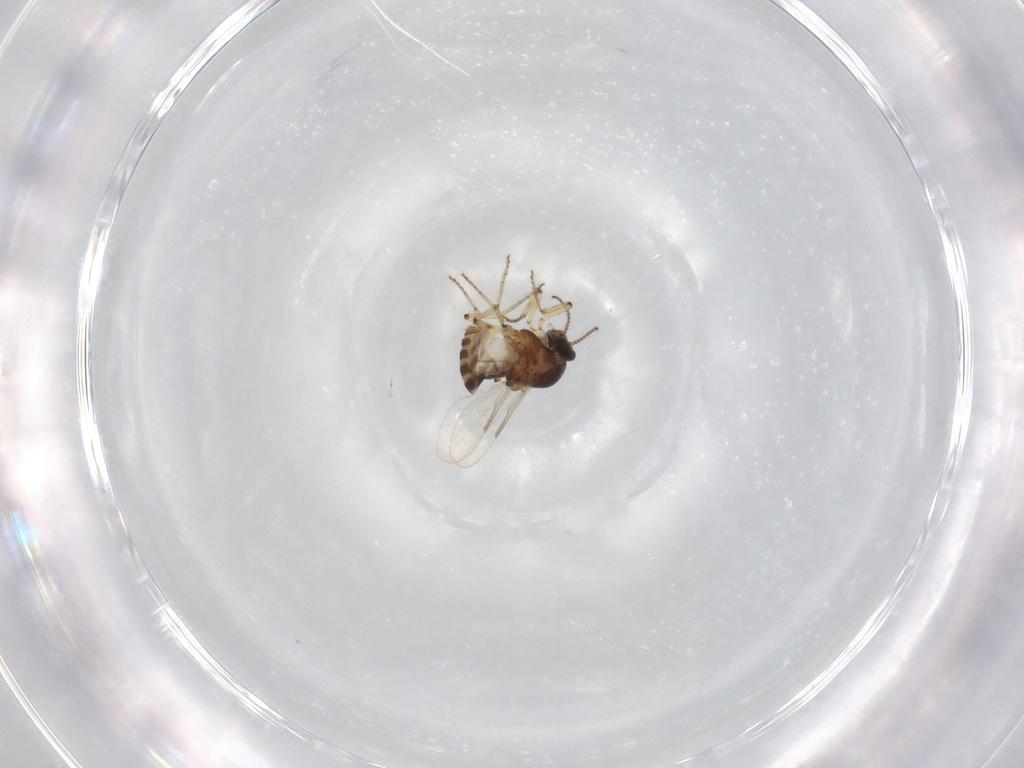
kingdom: Animalia
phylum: Arthropoda
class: Insecta
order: Diptera
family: Ceratopogonidae
